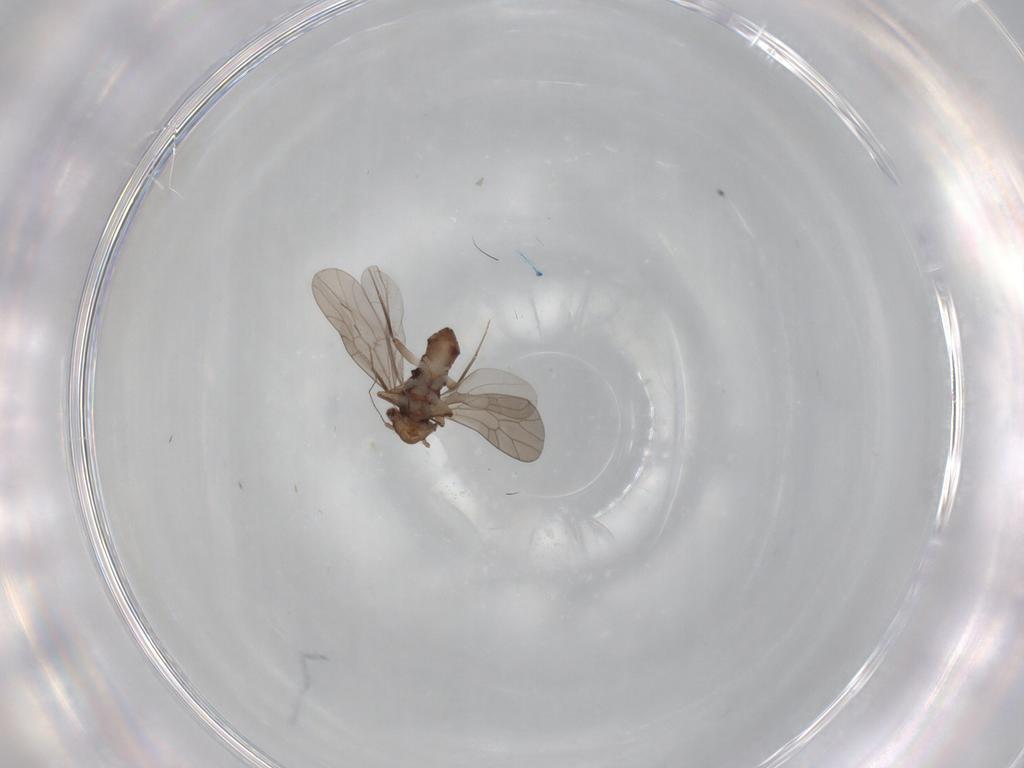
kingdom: Animalia
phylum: Arthropoda
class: Insecta
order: Psocodea
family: Lepidopsocidae
